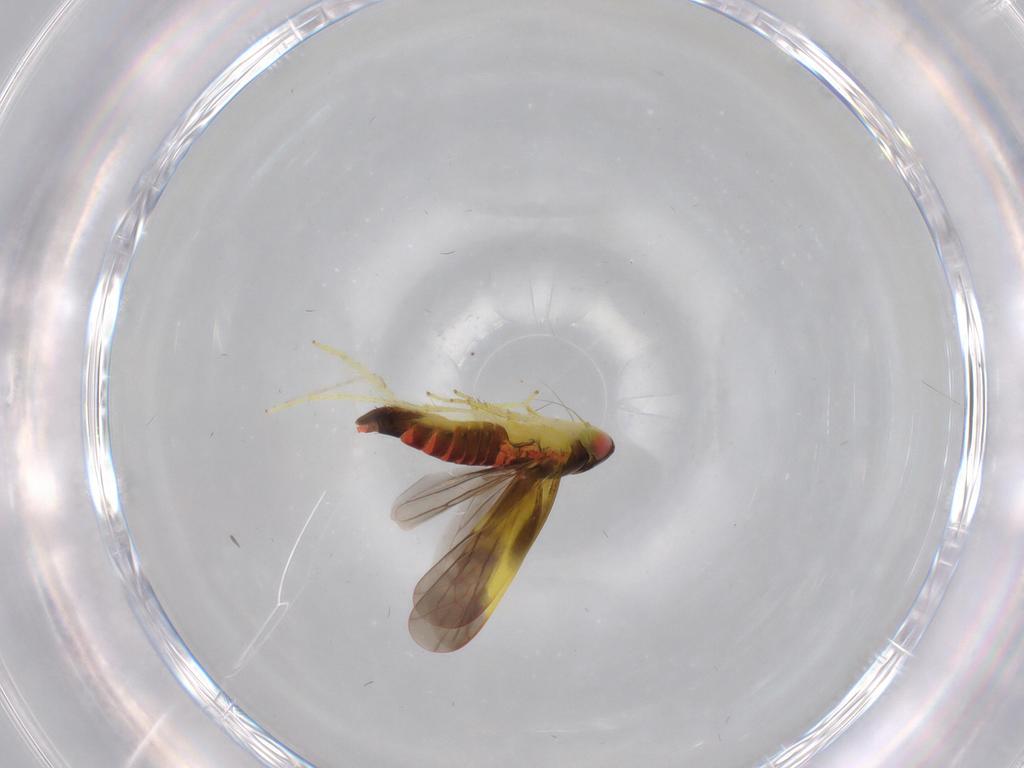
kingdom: Animalia
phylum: Arthropoda
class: Insecta
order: Hemiptera
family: Cicadellidae
